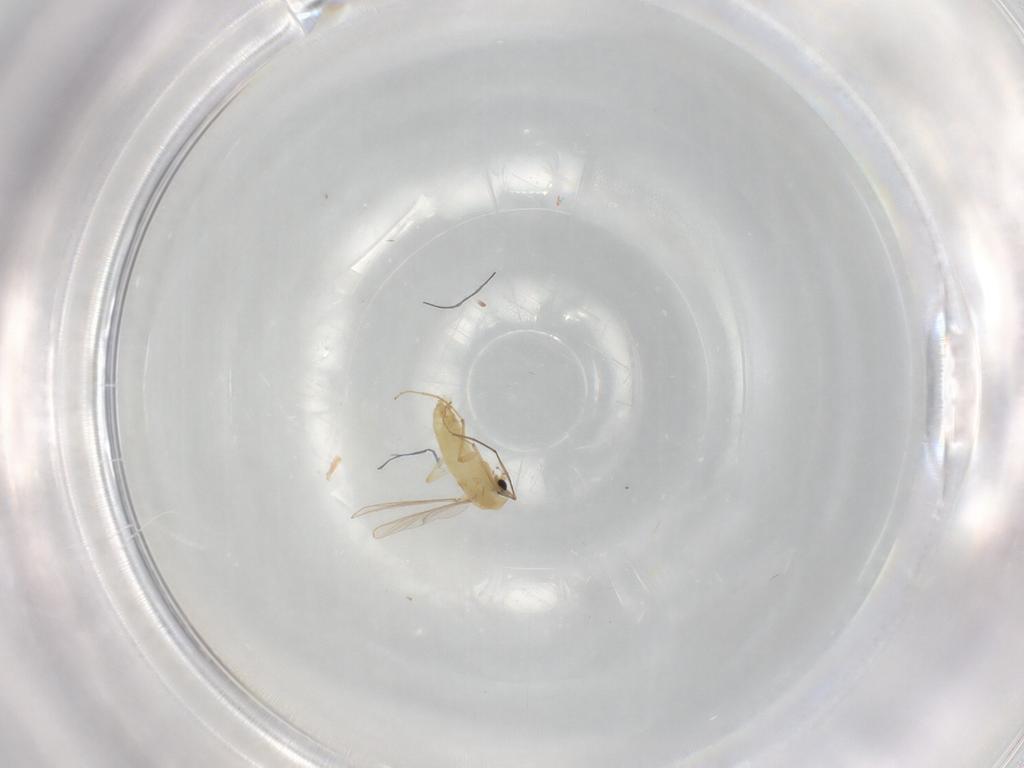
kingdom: Animalia
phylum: Arthropoda
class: Insecta
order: Diptera
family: Chironomidae
